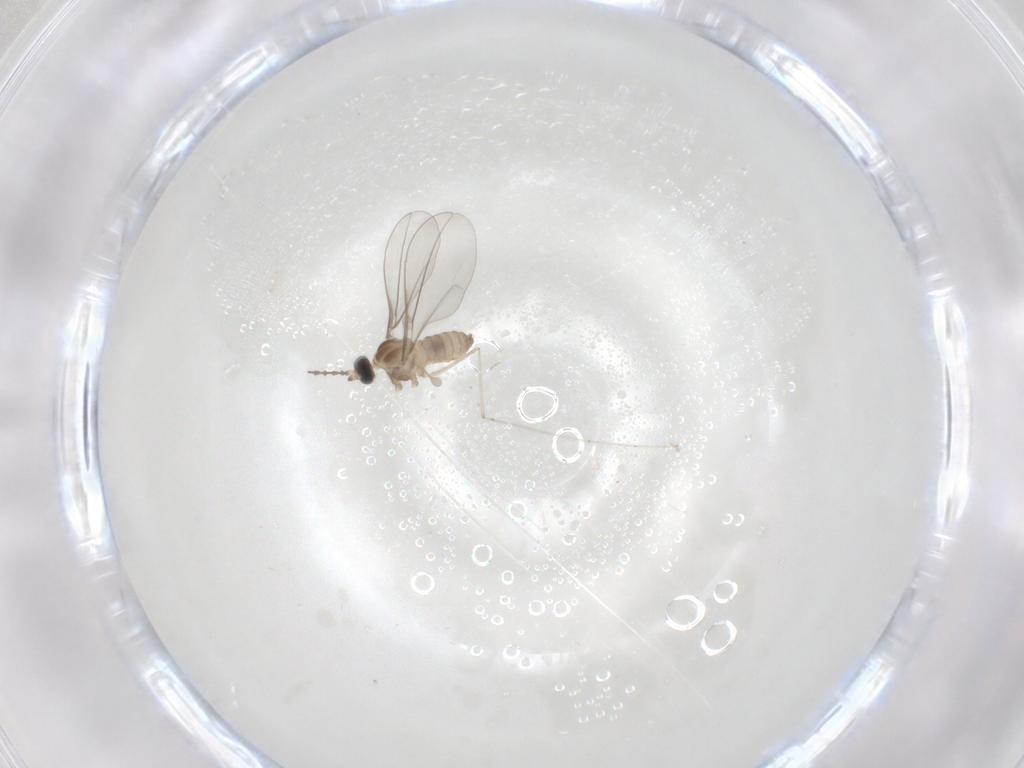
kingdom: Animalia
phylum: Arthropoda
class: Insecta
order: Diptera
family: Cecidomyiidae
